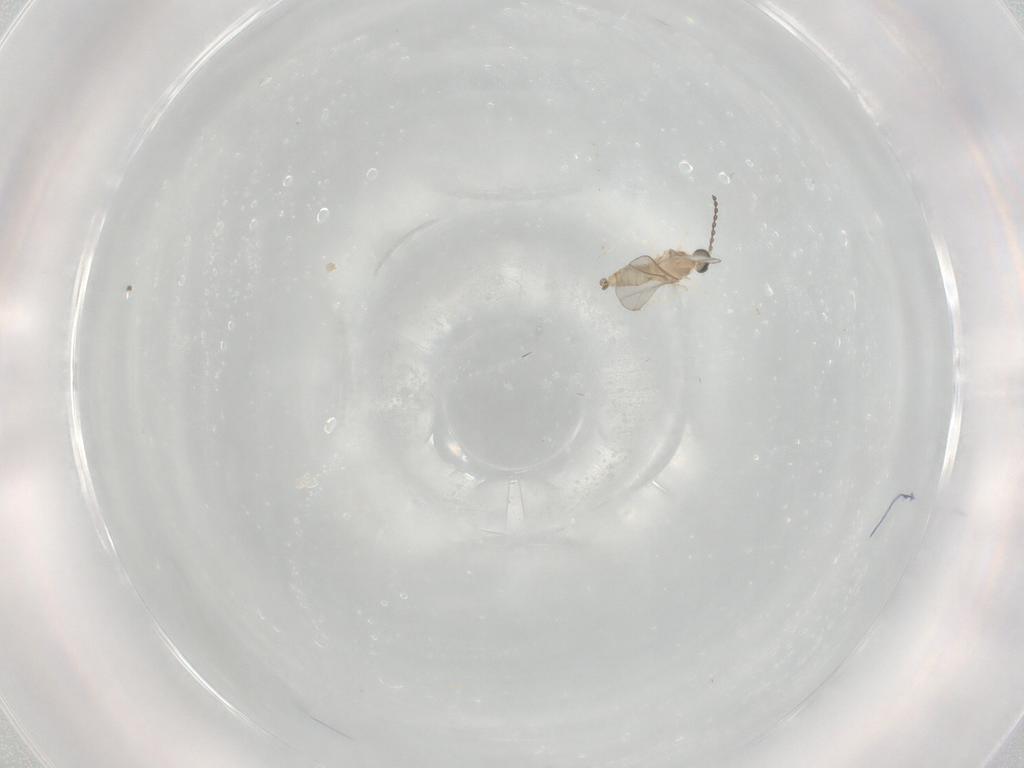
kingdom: Animalia
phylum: Arthropoda
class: Insecta
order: Diptera
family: Cecidomyiidae
